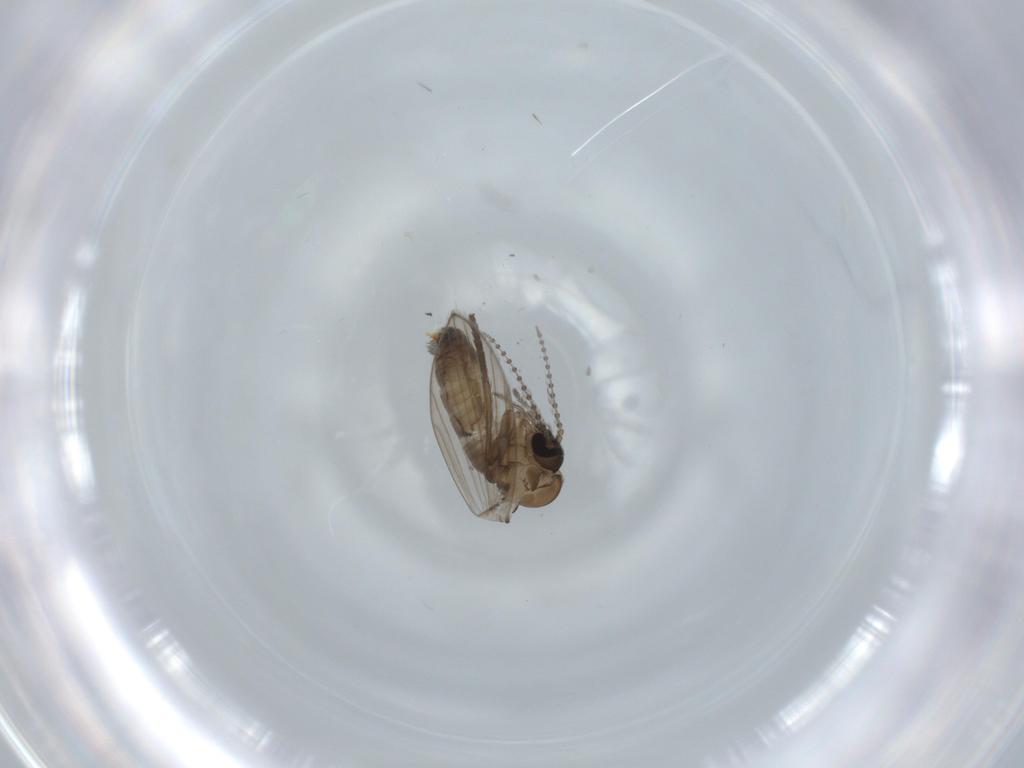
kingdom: Animalia
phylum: Arthropoda
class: Insecta
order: Diptera
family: Psychodidae
